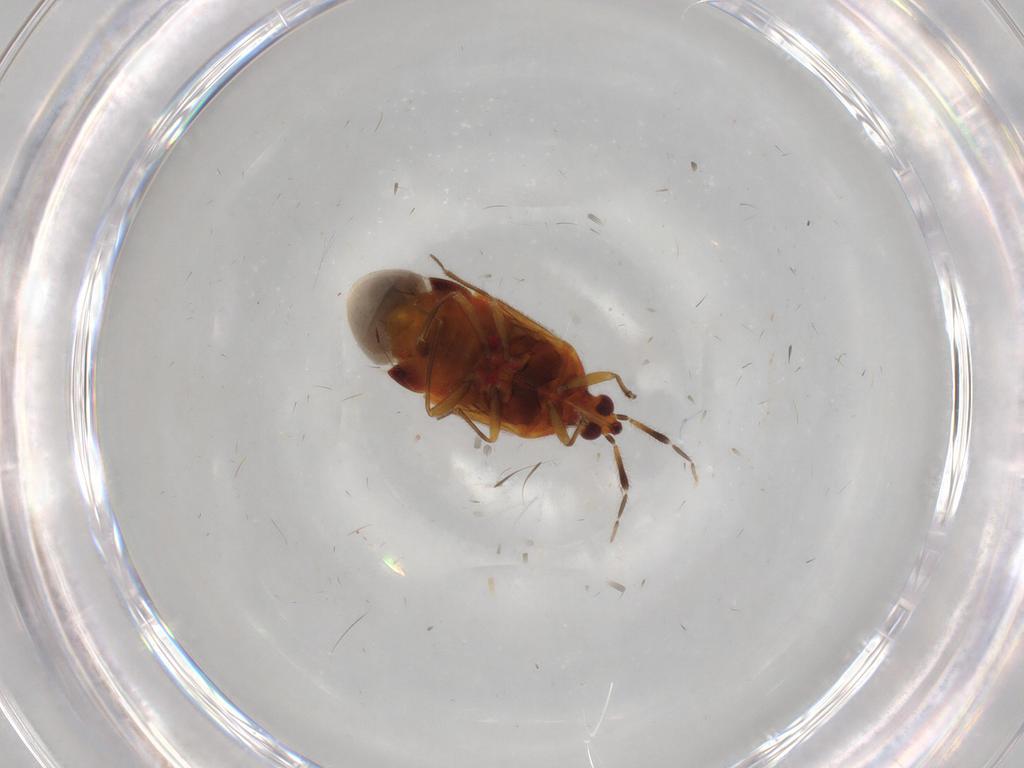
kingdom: Animalia
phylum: Arthropoda
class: Insecta
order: Hemiptera
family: Anthocoridae
